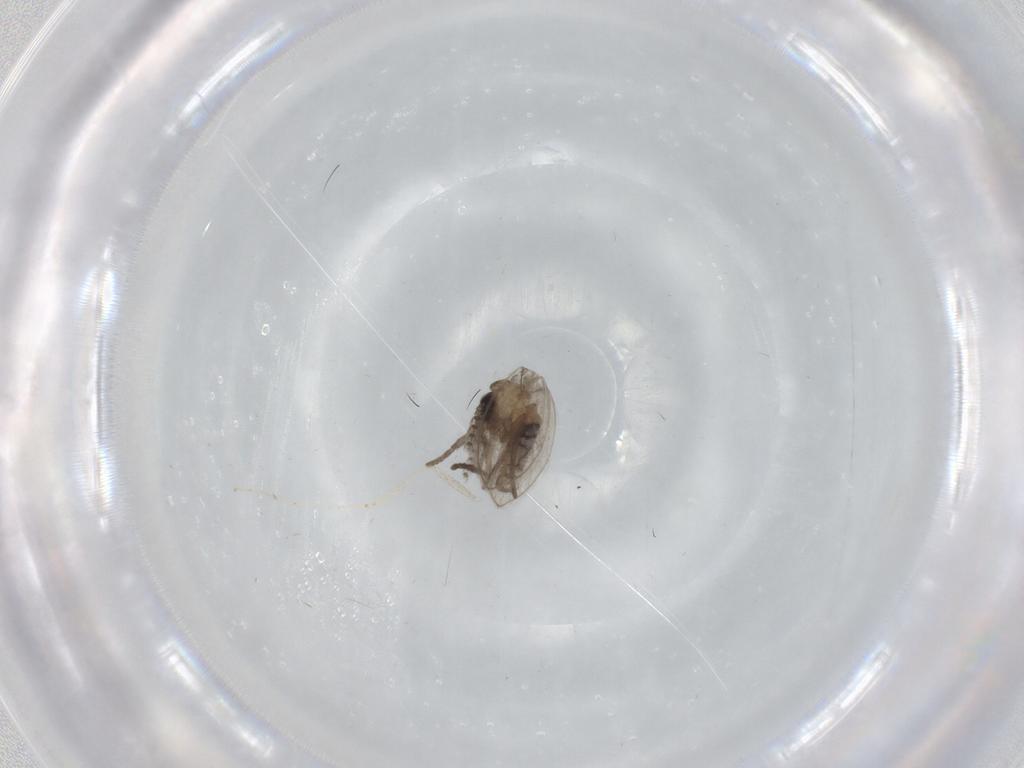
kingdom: Animalia
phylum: Arthropoda
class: Insecta
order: Diptera
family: Psychodidae
